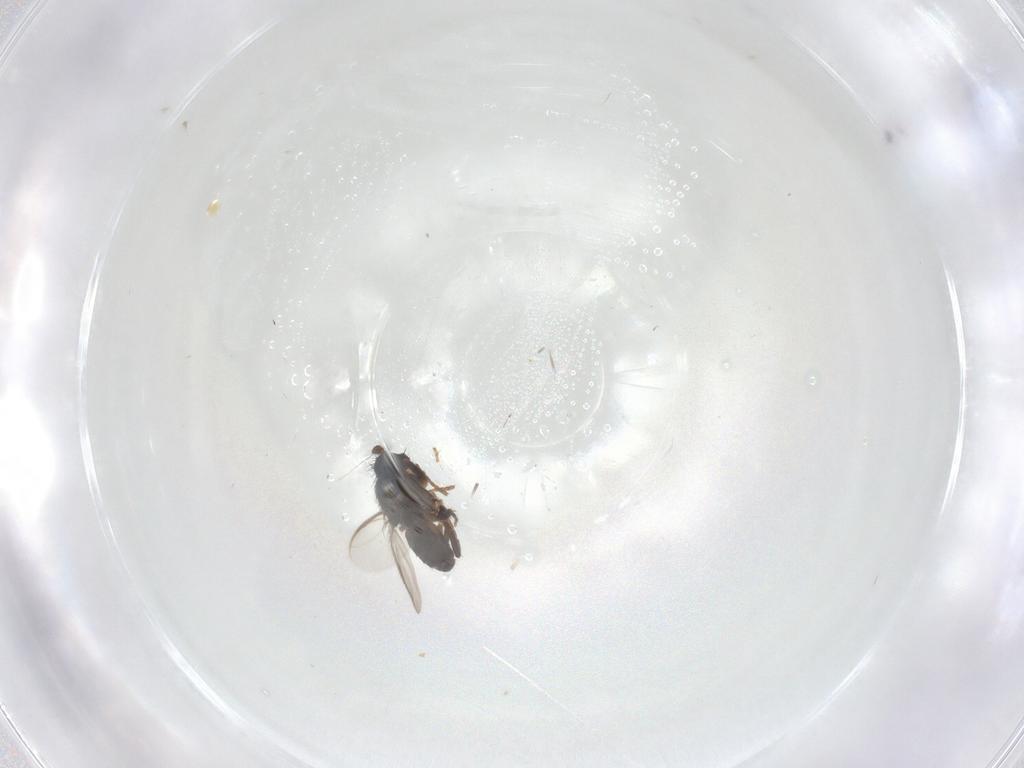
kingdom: Animalia
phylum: Arthropoda
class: Insecta
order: Diptera
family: Sphaeroceridae
